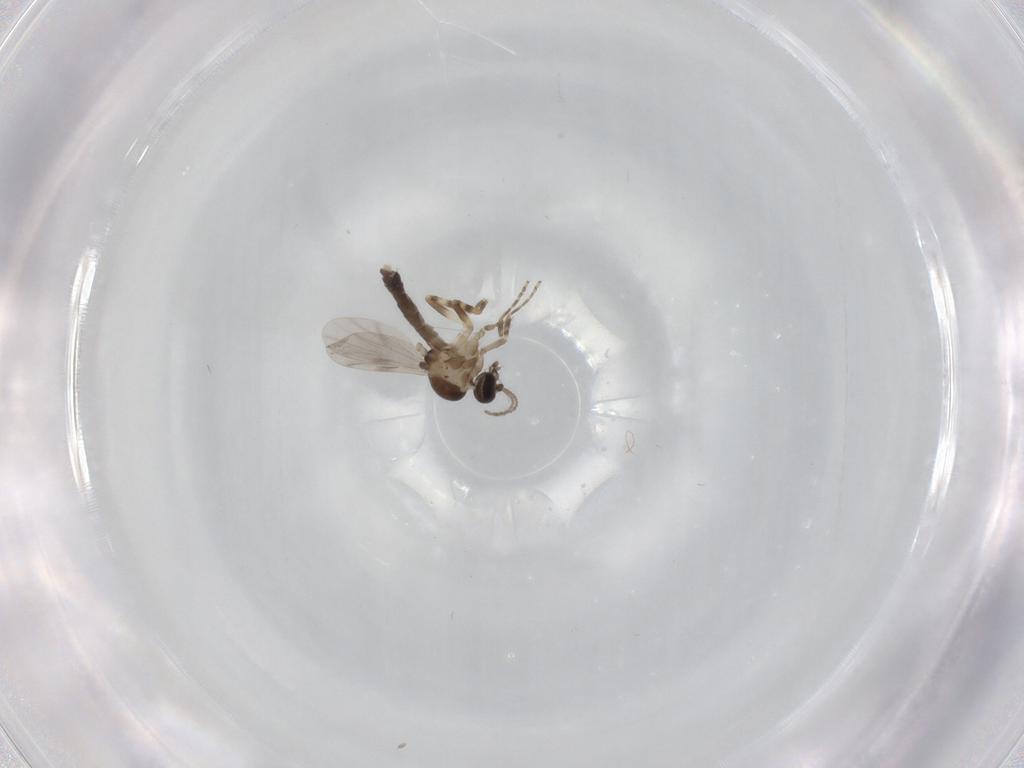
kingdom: Animalia
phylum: Arthropoda
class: Insecta
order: Diptera
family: Ceratopogonidae
